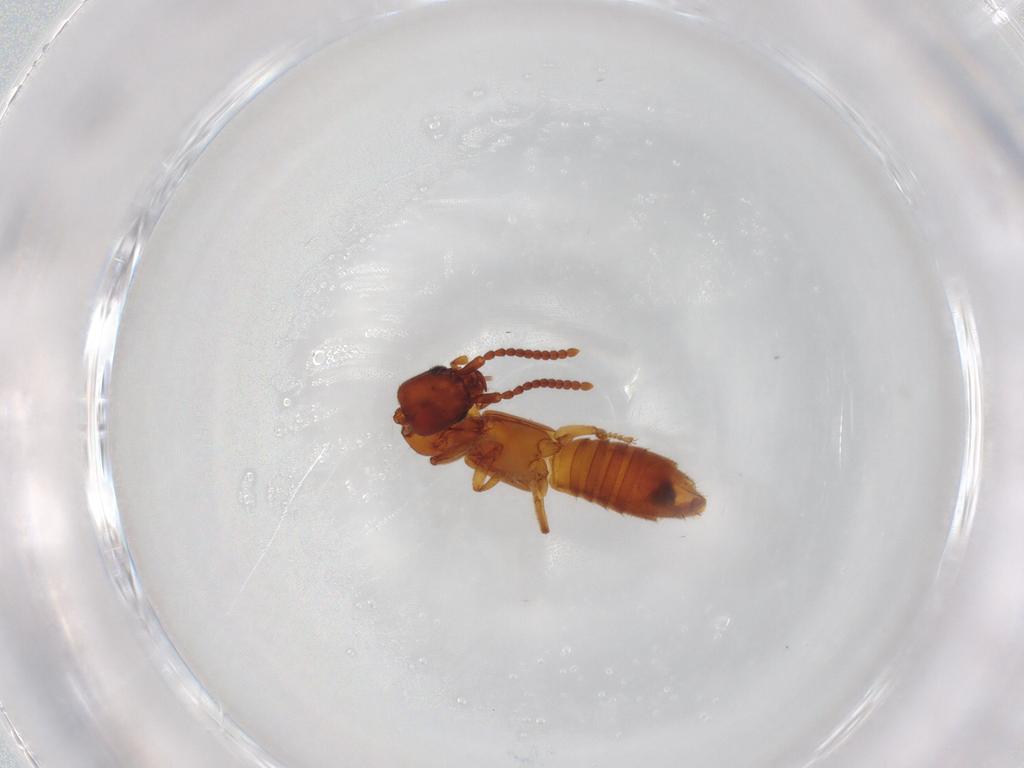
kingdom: Animalia
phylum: Arthropoda
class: Insecta
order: Coleoptera
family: Staphylinidae
